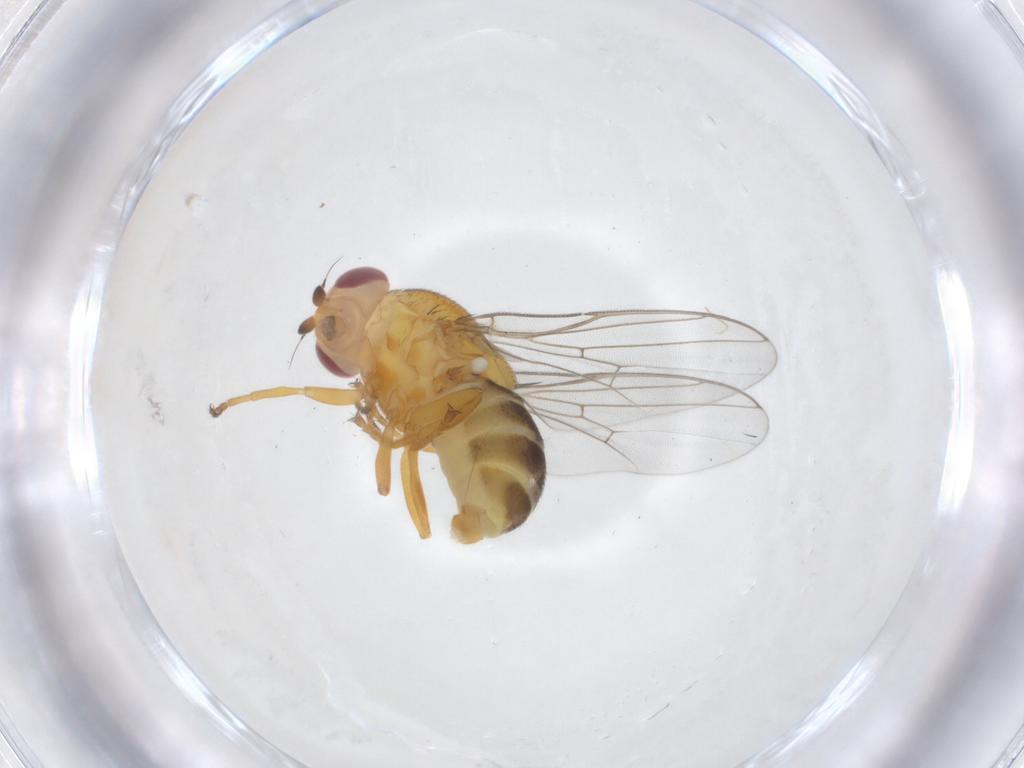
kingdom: Animalia
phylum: Arthropoda
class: Insecta
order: Diptera
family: Chloropidae
